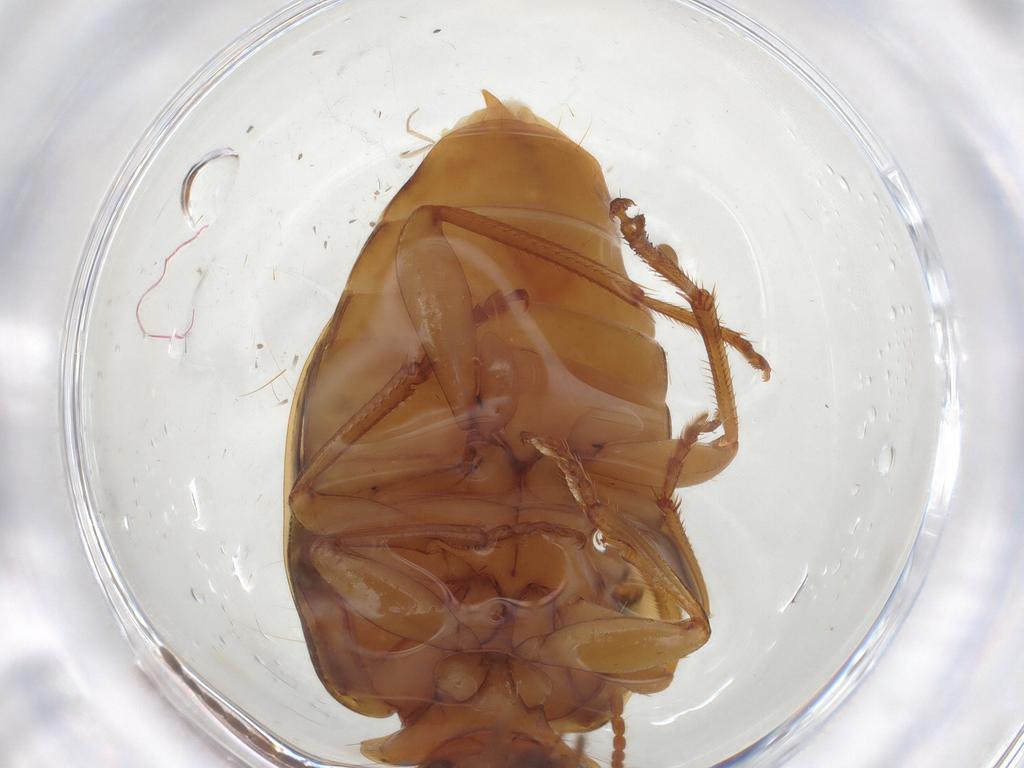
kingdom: Animalia
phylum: Arthropoda
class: Insecta
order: Coleoptera
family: Carabidae
